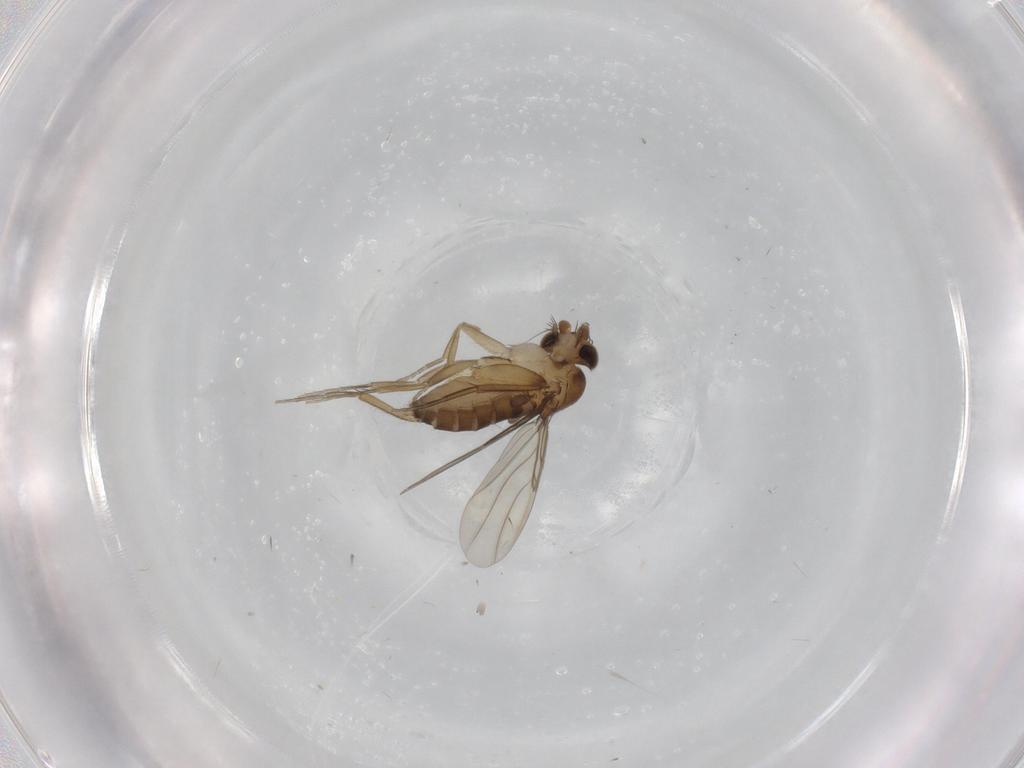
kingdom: Animalia
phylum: Arthropoda
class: Insecta
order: Diptera
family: Phoridae
